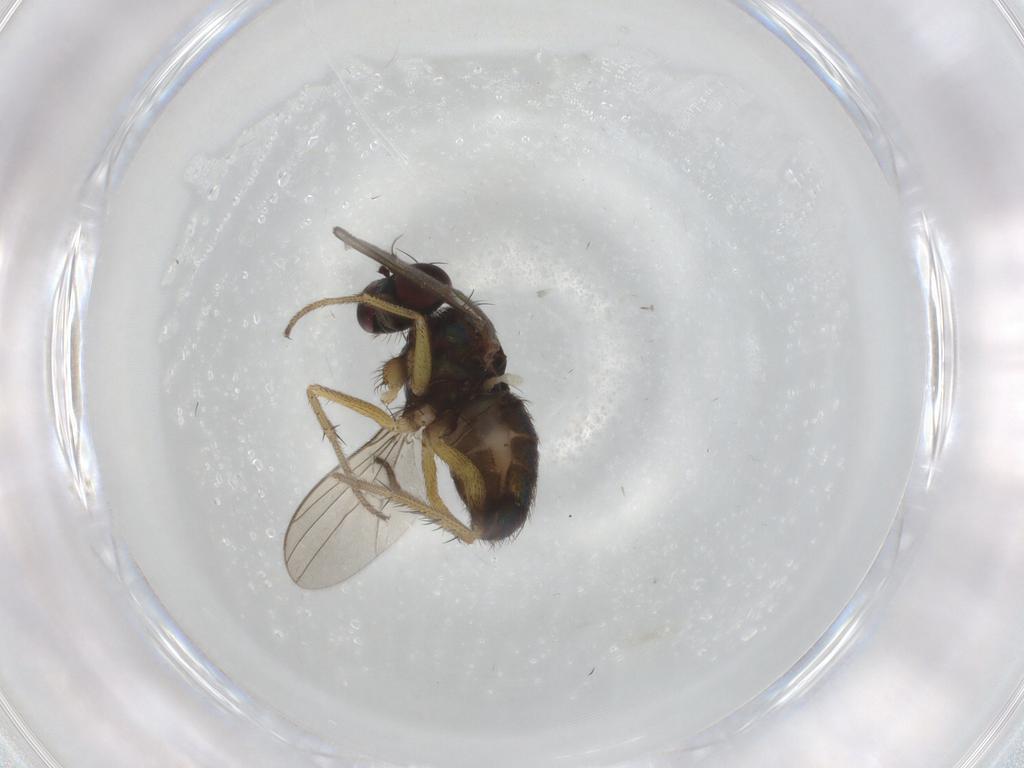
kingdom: Animalia
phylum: Arthropoda
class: Insecta
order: Diptera
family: Dolichopodidae
